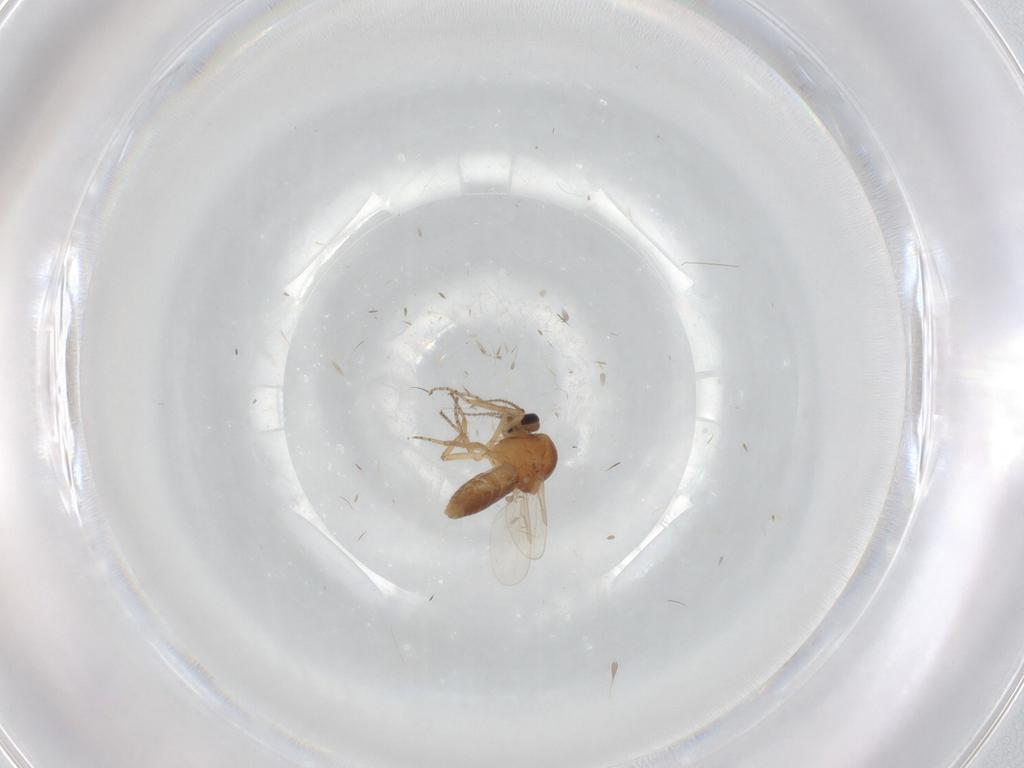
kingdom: Animalia
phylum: Arthropoda
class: Insecta
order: Diptera
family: Ceratopogonidae
